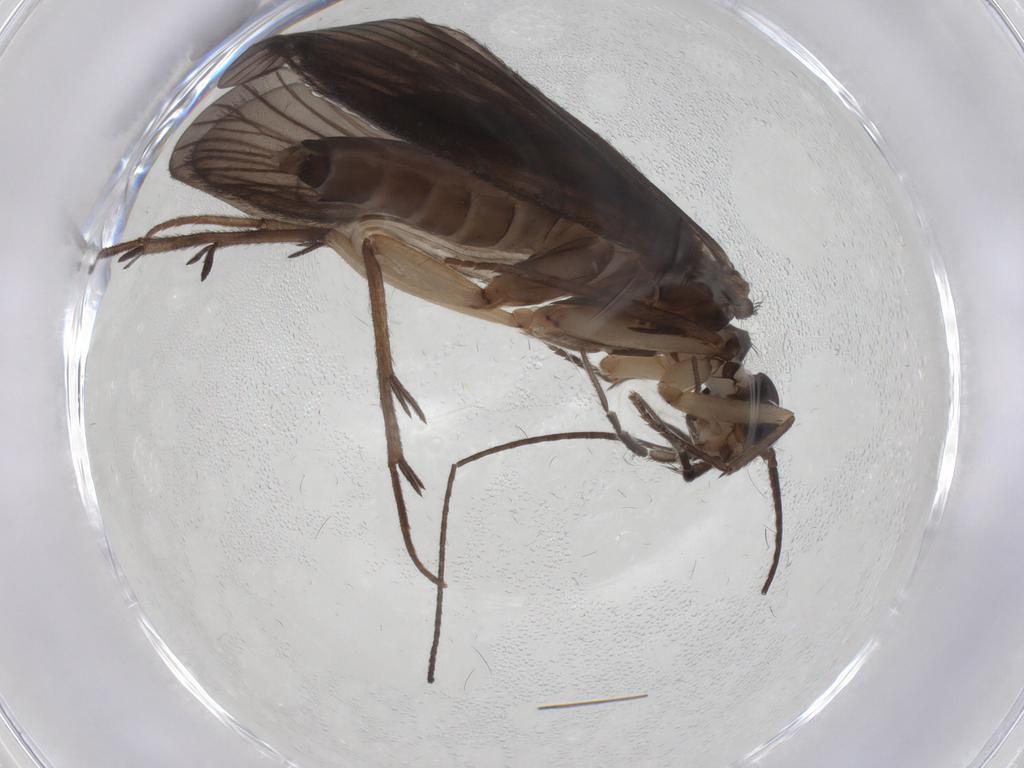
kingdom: Animalia
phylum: Arthropoda
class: Insecta
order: Trichoptera
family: Philopotamidae
